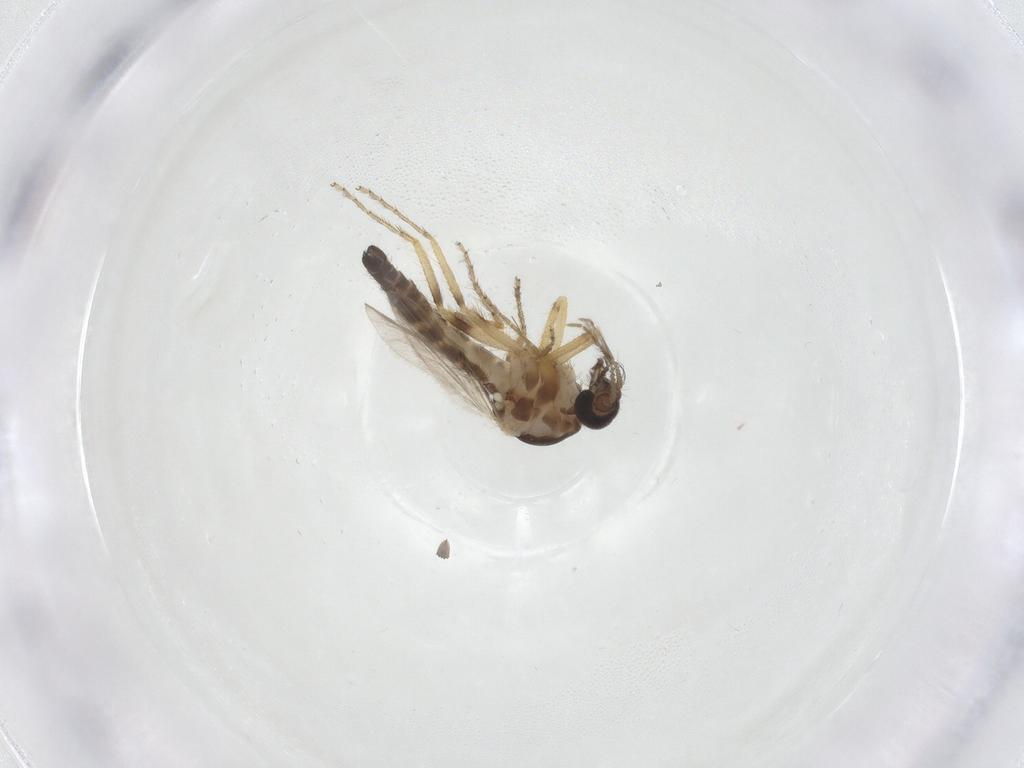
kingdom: Animalia
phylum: Arthropoda
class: Insecta
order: Diptera
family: Ceratopogonidae
